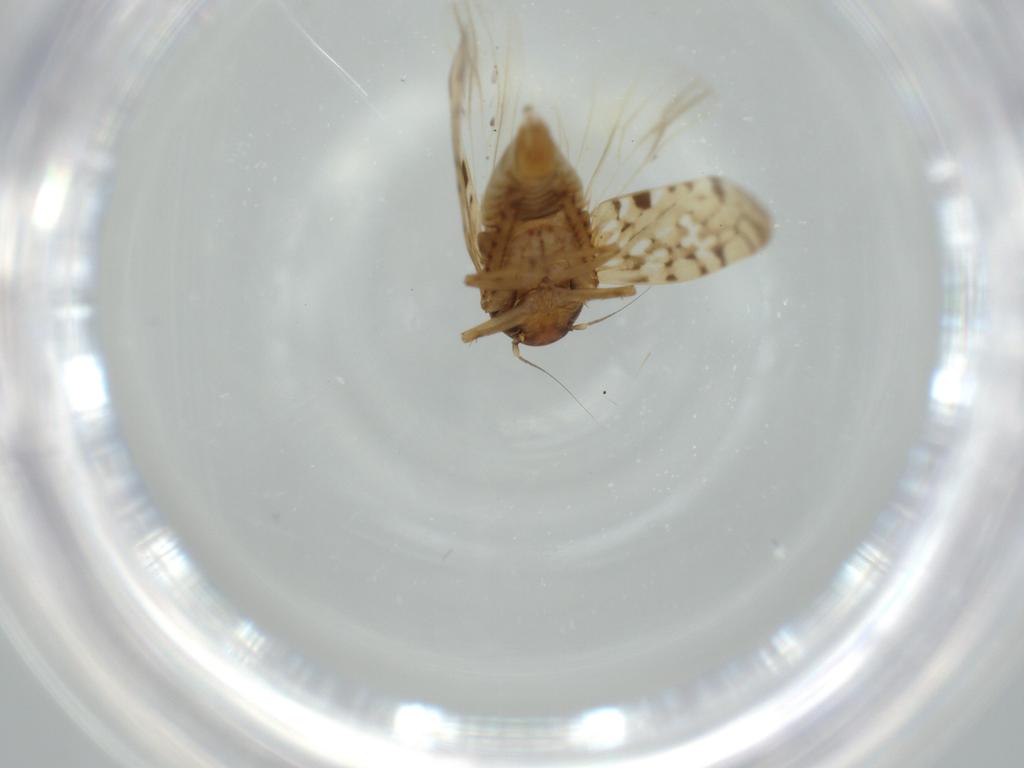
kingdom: Animalia
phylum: Arthropoda
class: Insecta
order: Hemiptera
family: Cicadellidae
